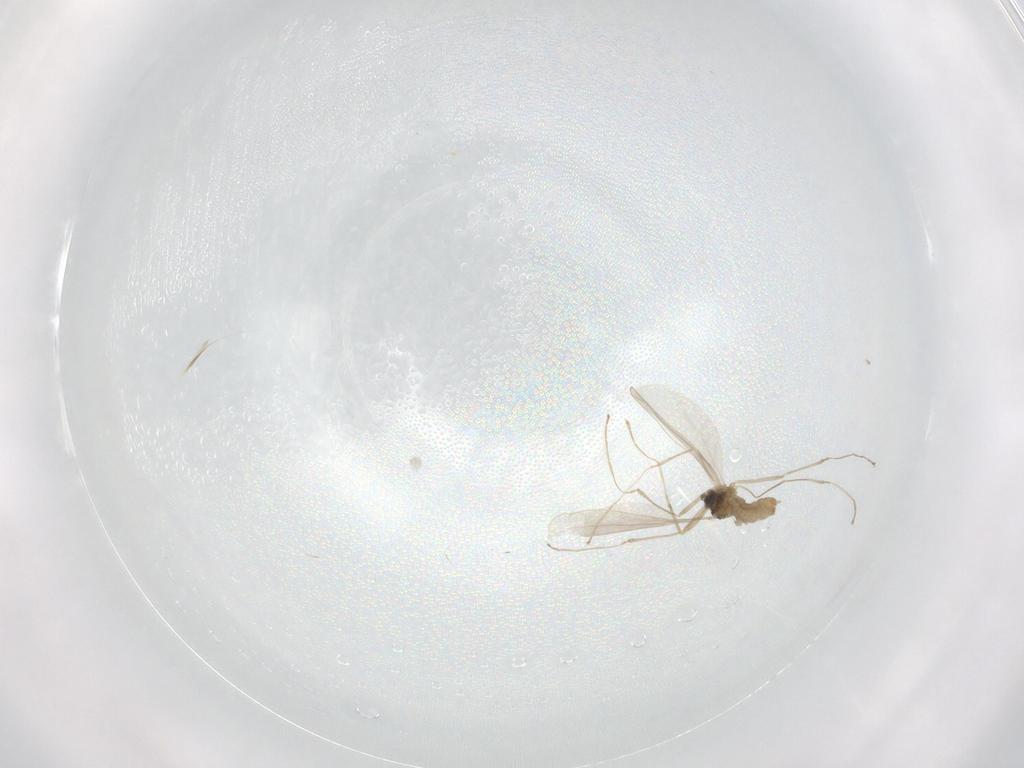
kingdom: Animalia
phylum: Arthropoda
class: Insecta
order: Diptera
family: Cecidomyiidae
